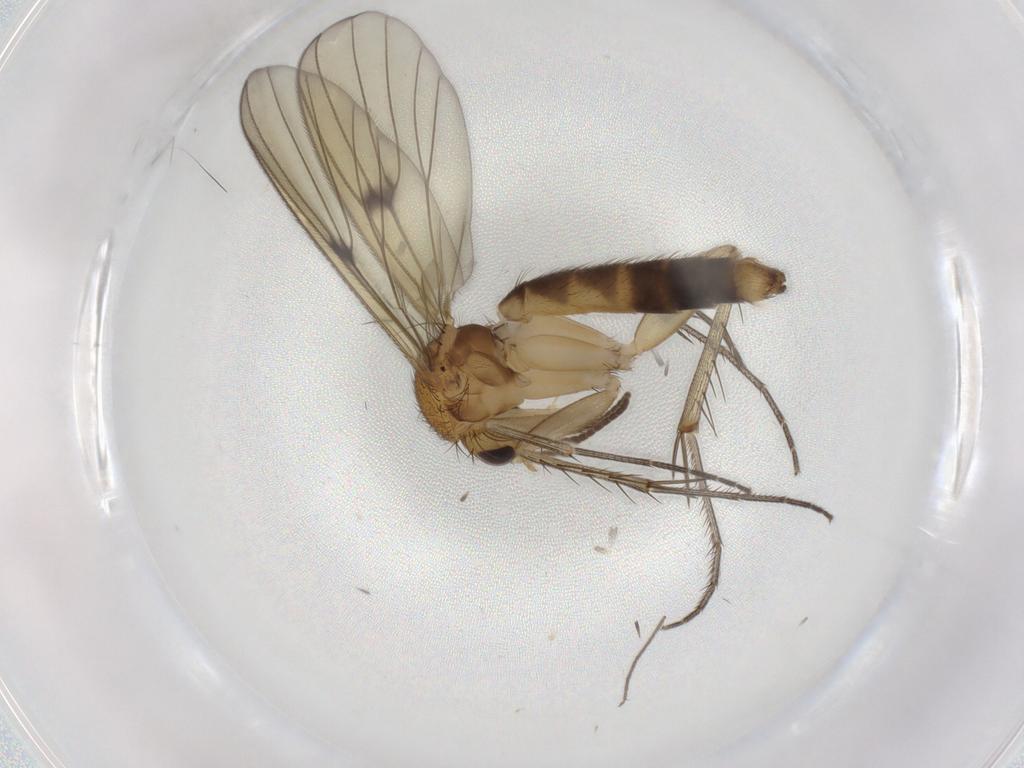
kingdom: Animalia
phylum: Arthropoda
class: Insecta
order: Diptera
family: Mycetophilidae
